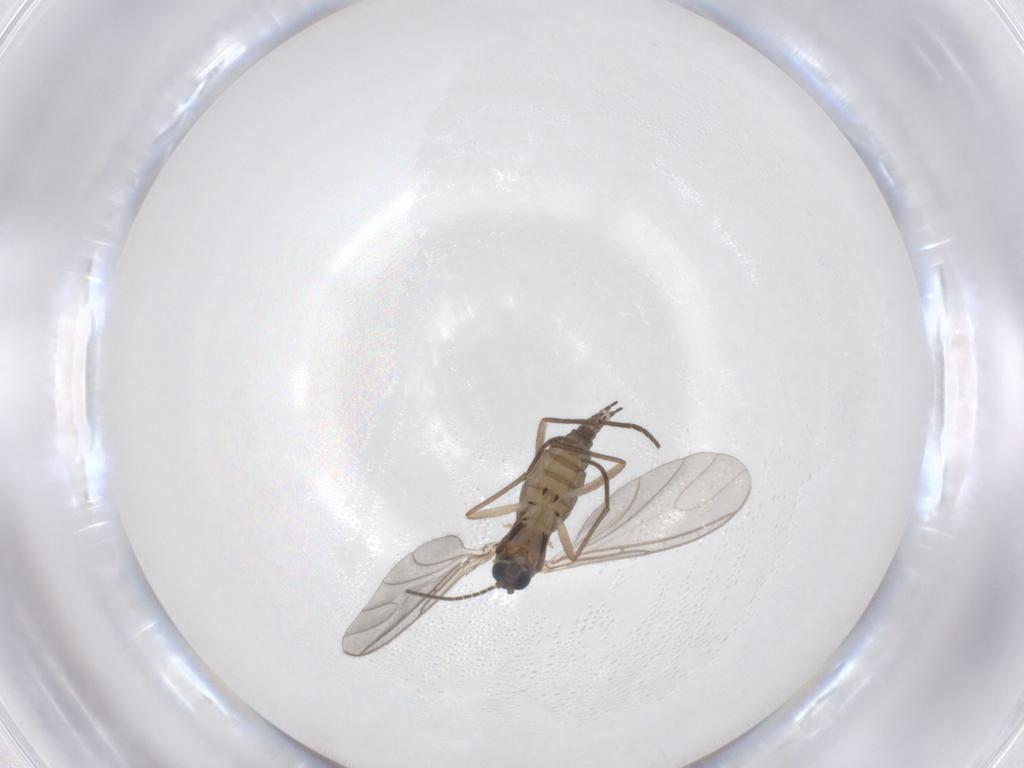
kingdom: Animalia
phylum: Arthropoda
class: Insecta
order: Diptera
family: Sciaridae
